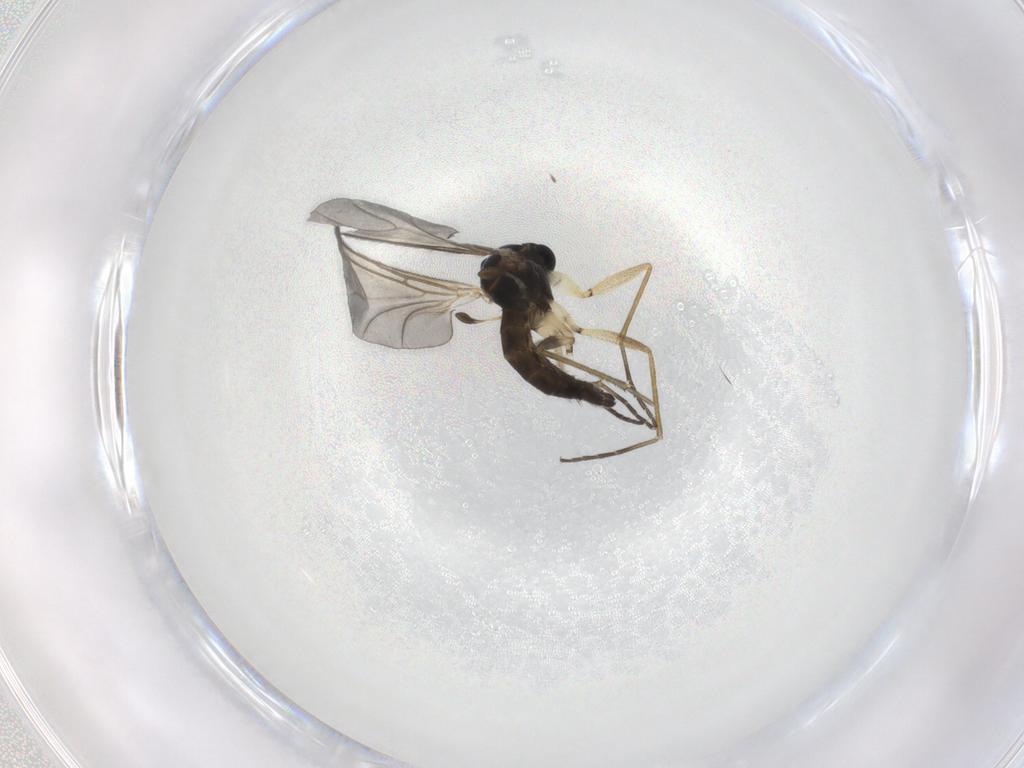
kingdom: Animalia
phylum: Arthropoda
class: Insecta
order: Diptera
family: Sciaridae
